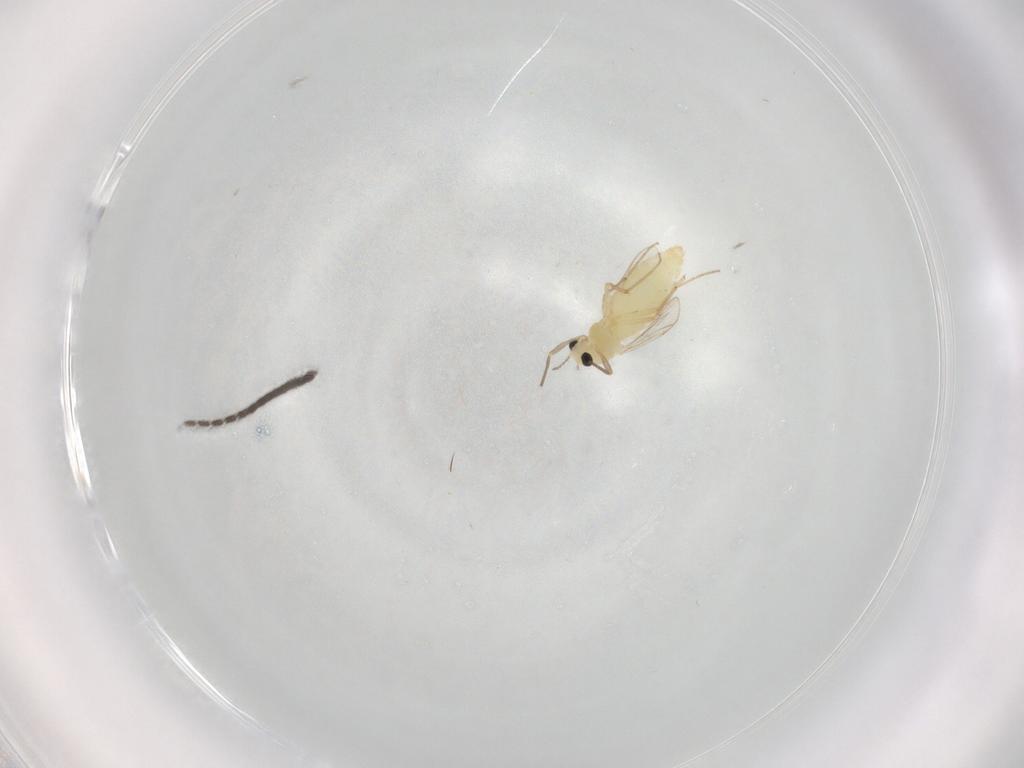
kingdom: Animalia
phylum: Arthropoda
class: Insecta
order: Diptera
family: Chironomidae
